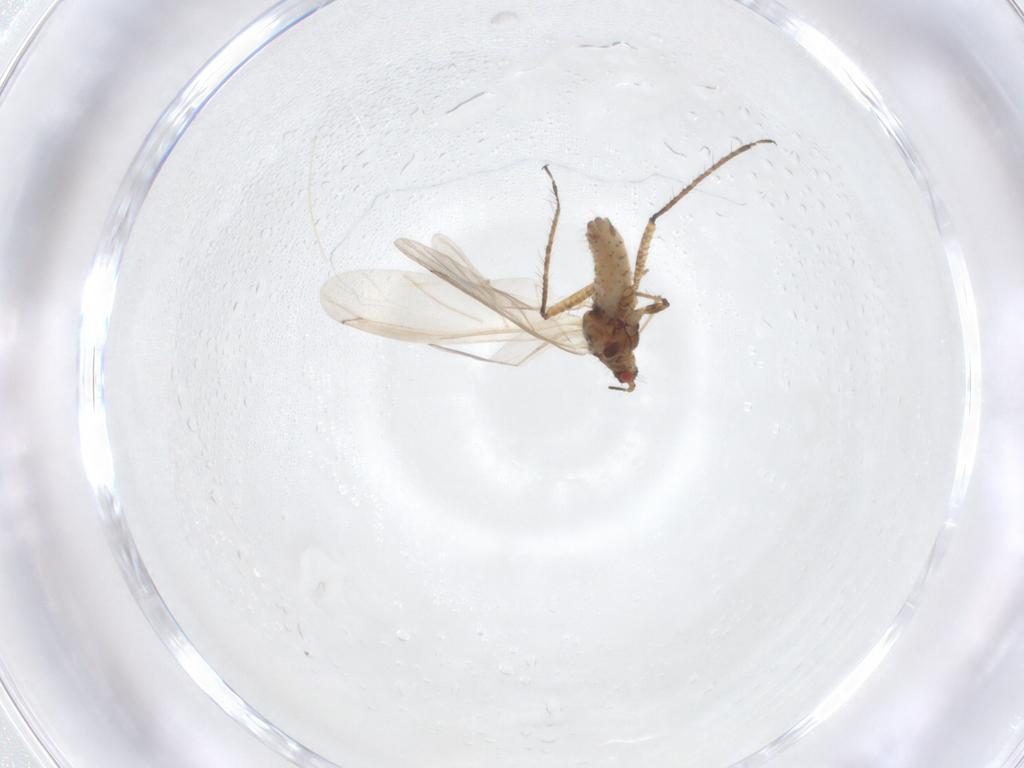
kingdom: Animalia
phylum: Arthropoda
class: Insecta
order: Hemiptera
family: Aphididae
